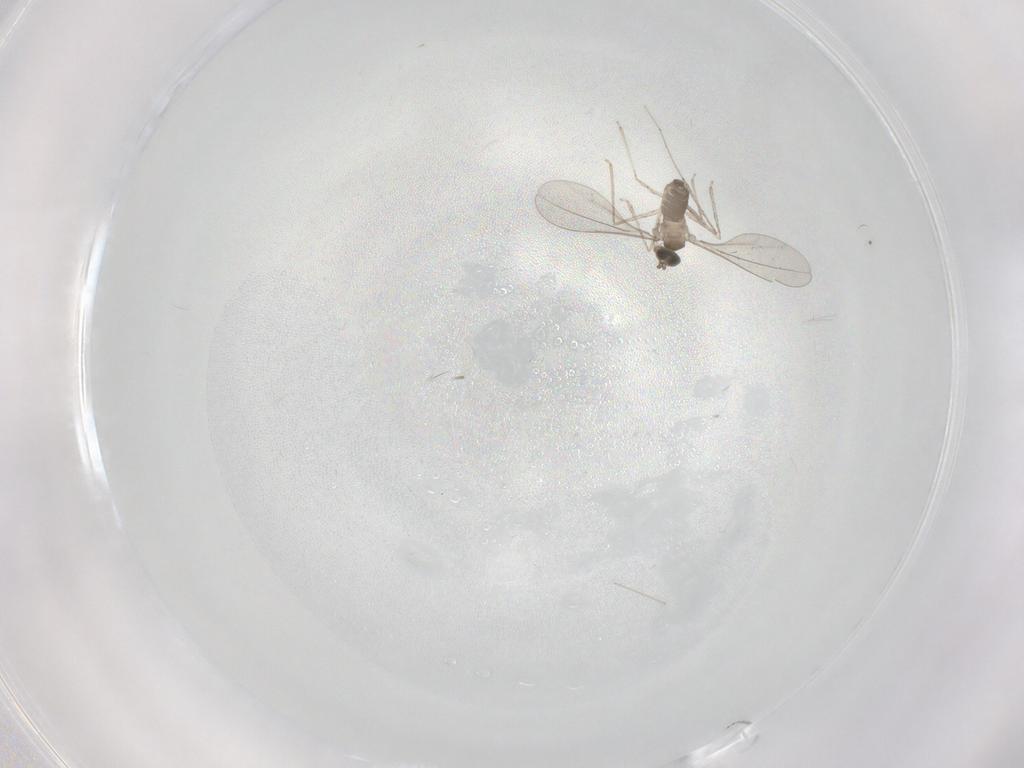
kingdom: Animalia
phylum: Arthropoda
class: Insecta
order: Diptera
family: Cecidomyiidae
